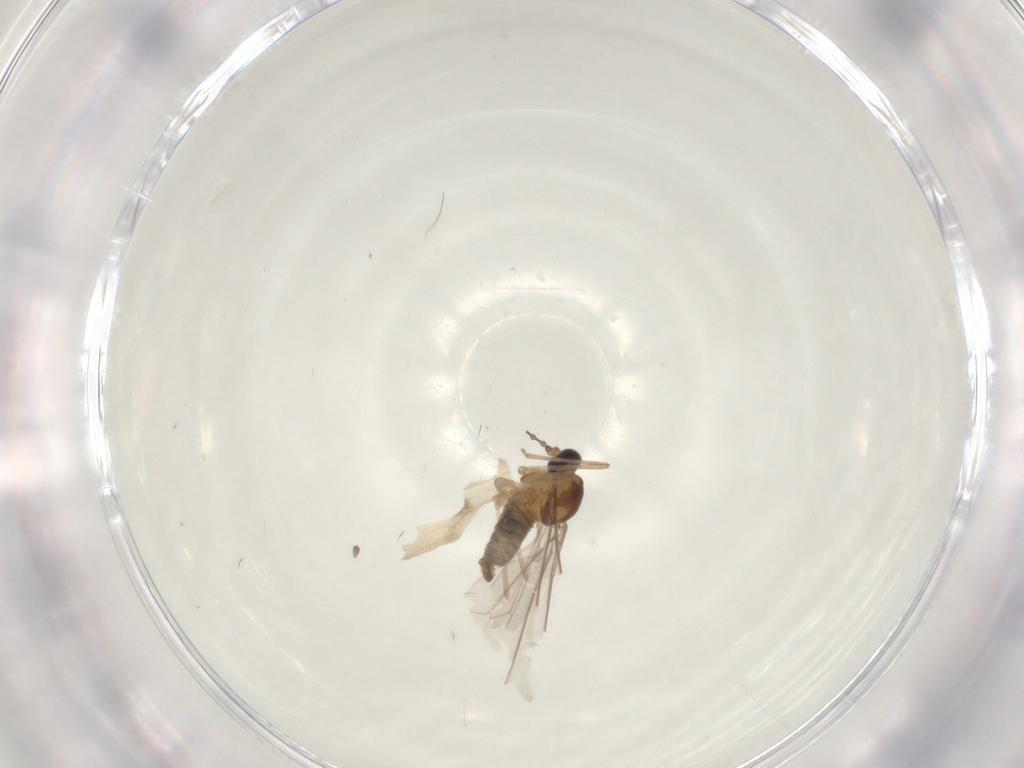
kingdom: Animalia
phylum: Arthropoda
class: Insecta
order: Diptera
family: Cecidomyiidae
